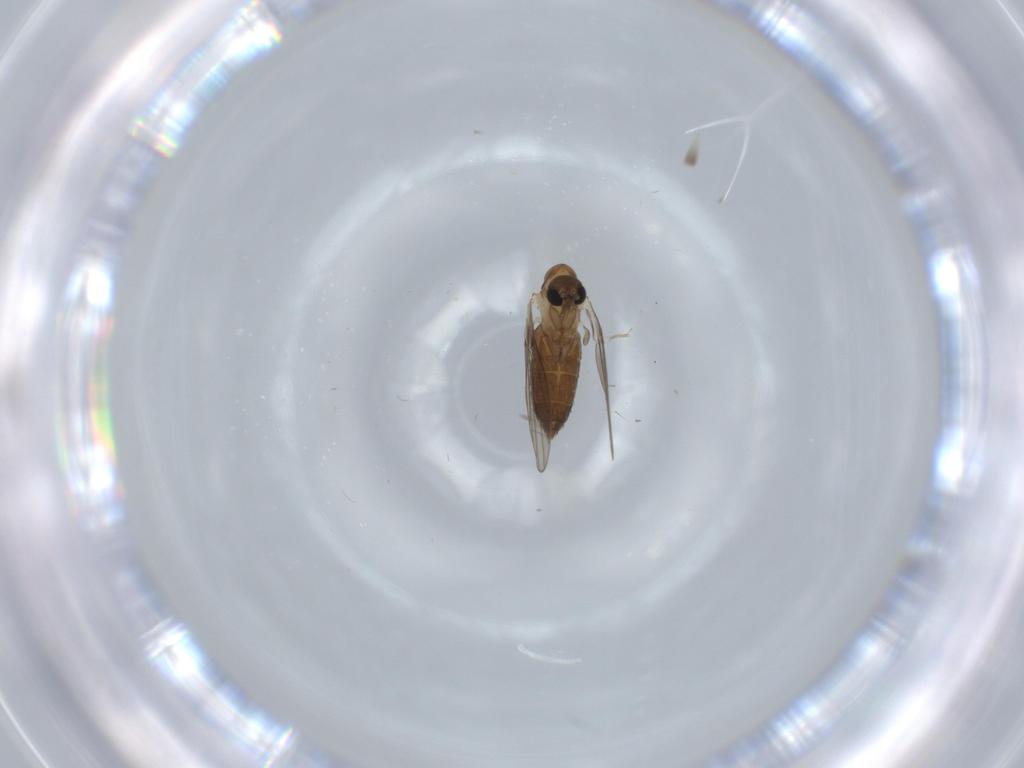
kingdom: Animalia
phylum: Arthropoda
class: Insecta
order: Diptera
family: Psychodidae
